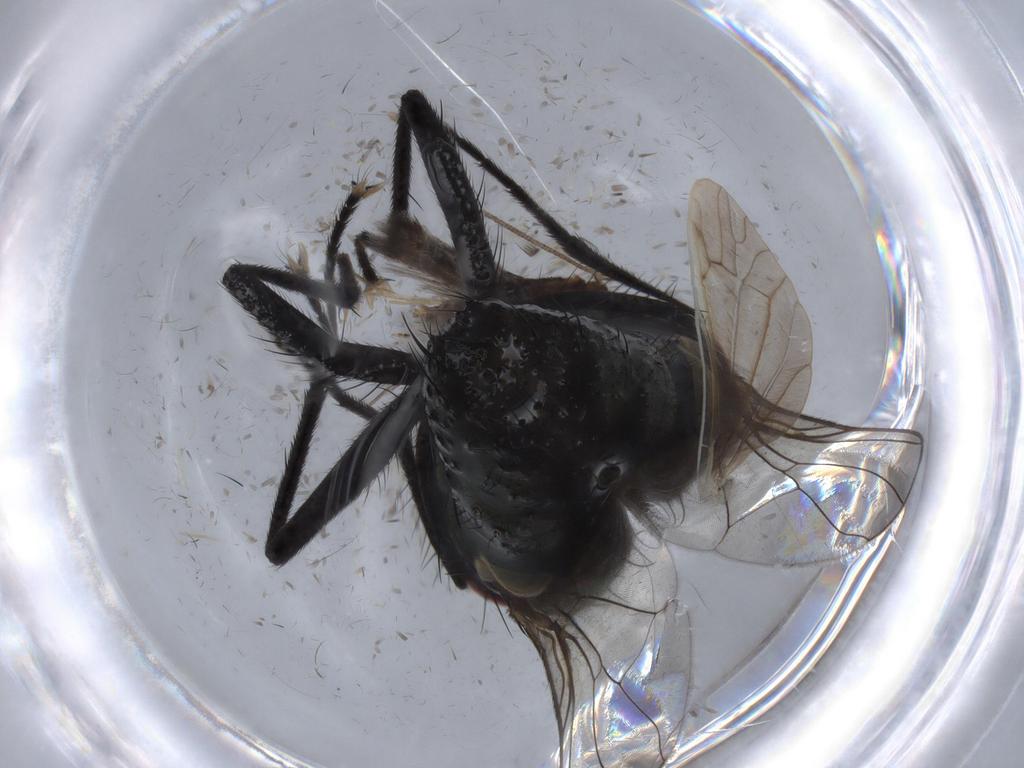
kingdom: Animalia
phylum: Arthropoda
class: Insecta
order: Diptera
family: Muscidae
